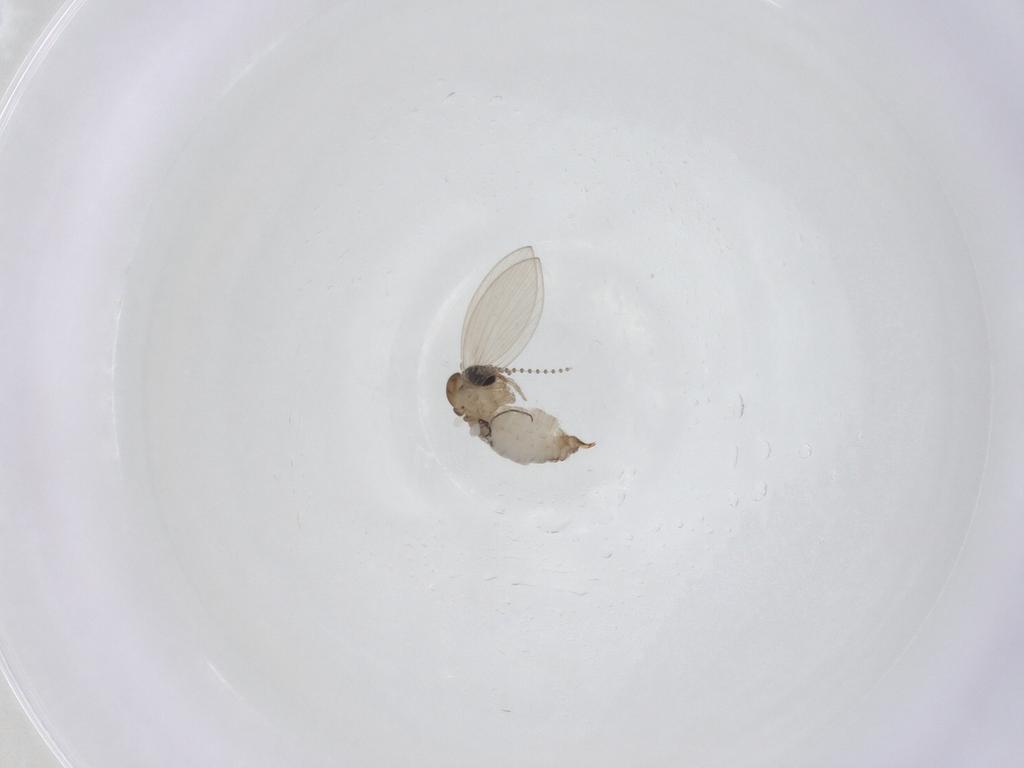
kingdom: Animalia
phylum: Arthropoda
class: Insecta
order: Diptera
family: Psychodidae
